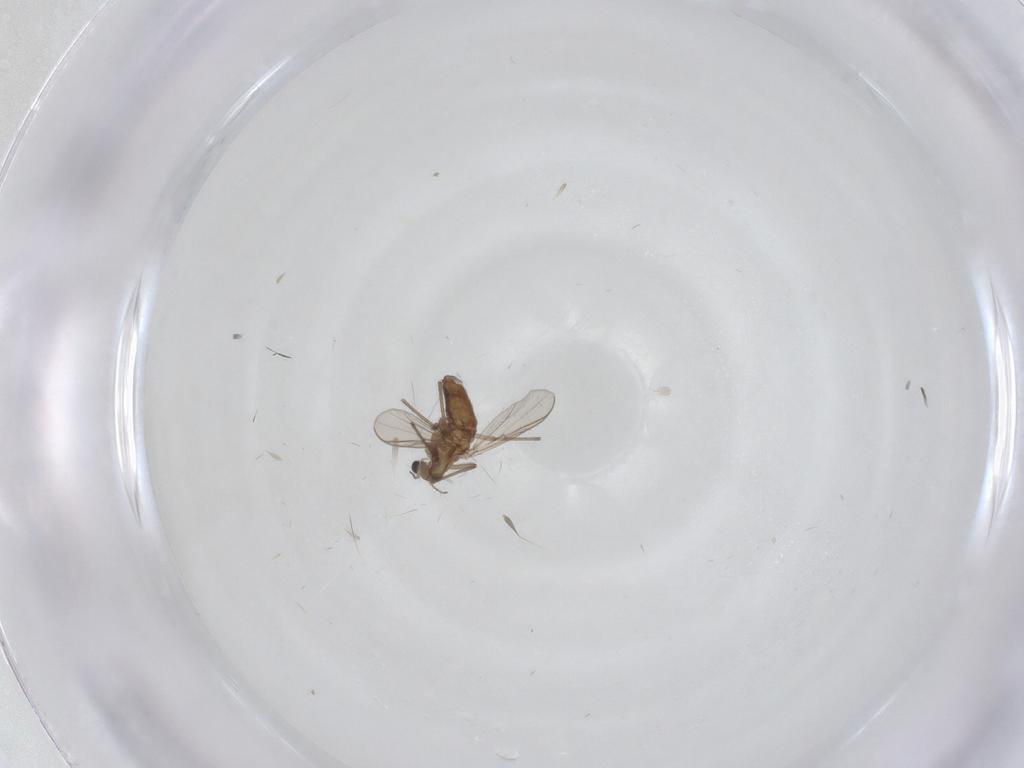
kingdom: Animalia
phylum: Arthropoda
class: Insecta
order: Diptera
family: Chironomidae
